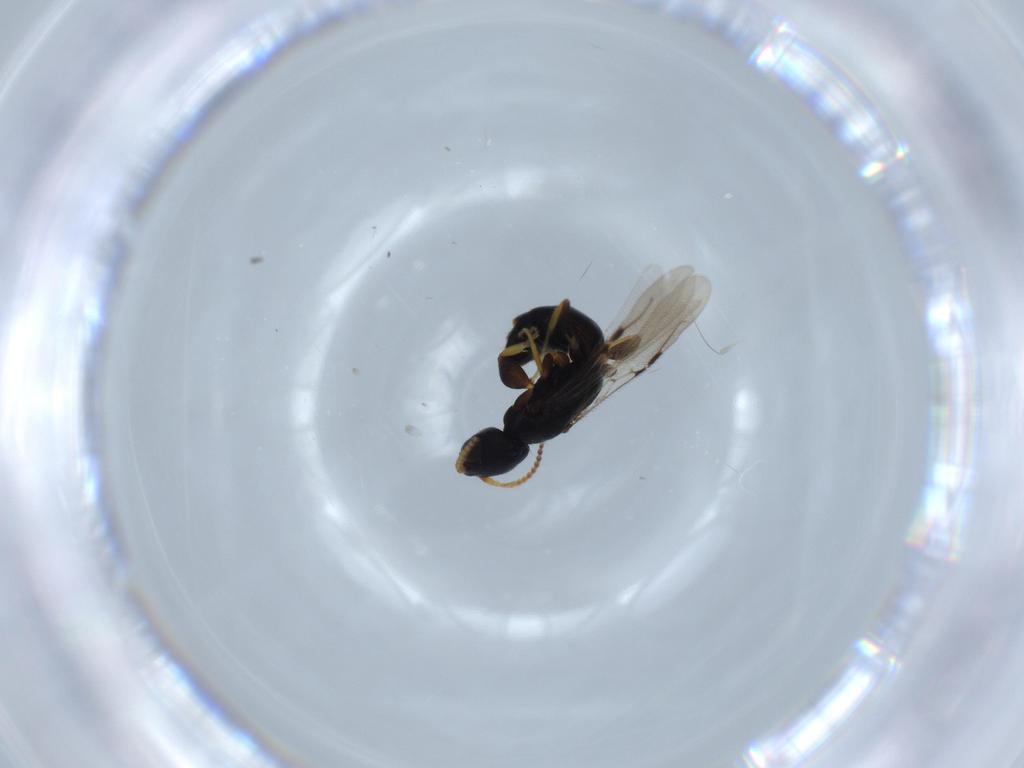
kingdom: Animalia
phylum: Arthropoda
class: Insecta
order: Hymenoptera
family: Bethylidae
